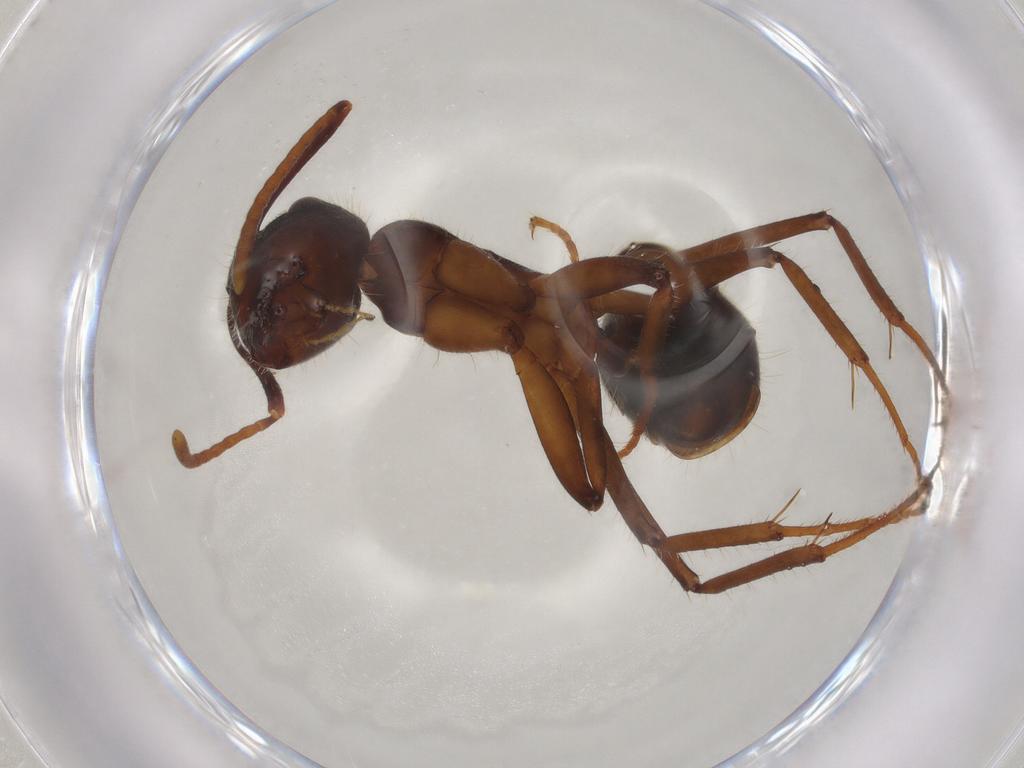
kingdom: Animalia
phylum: Arthropoda
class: Insecta
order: Hymenoptera
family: Formicidae
